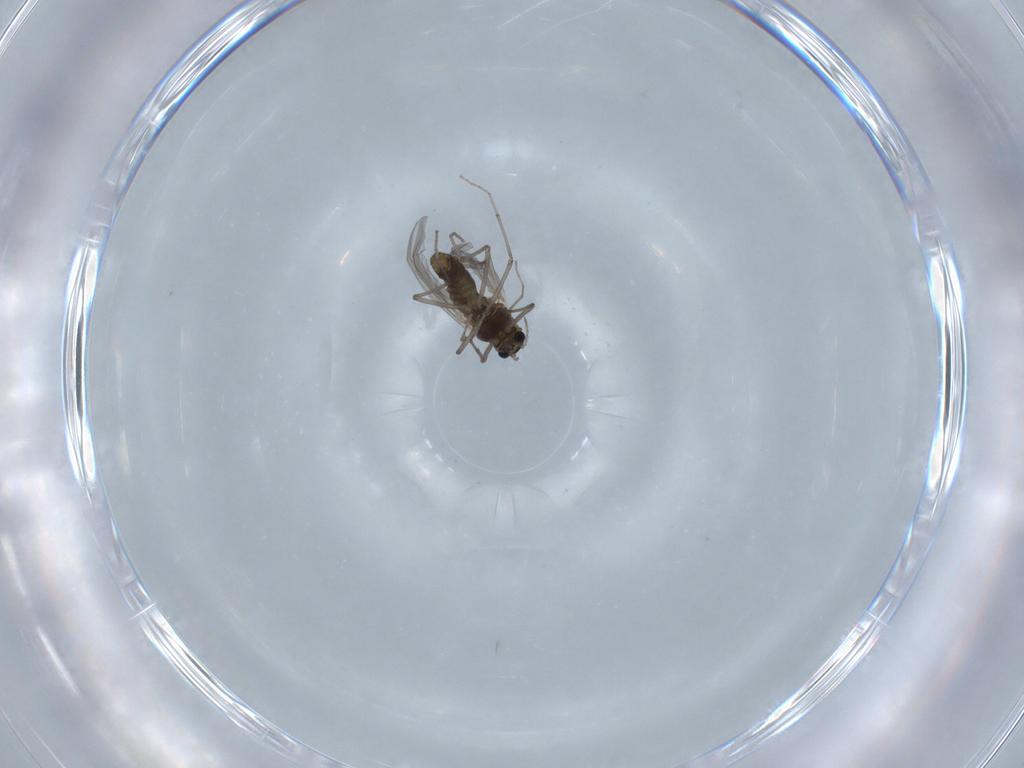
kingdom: Animalia
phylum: Arthropoda
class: Insecta
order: Diptera
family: Chironomidae
